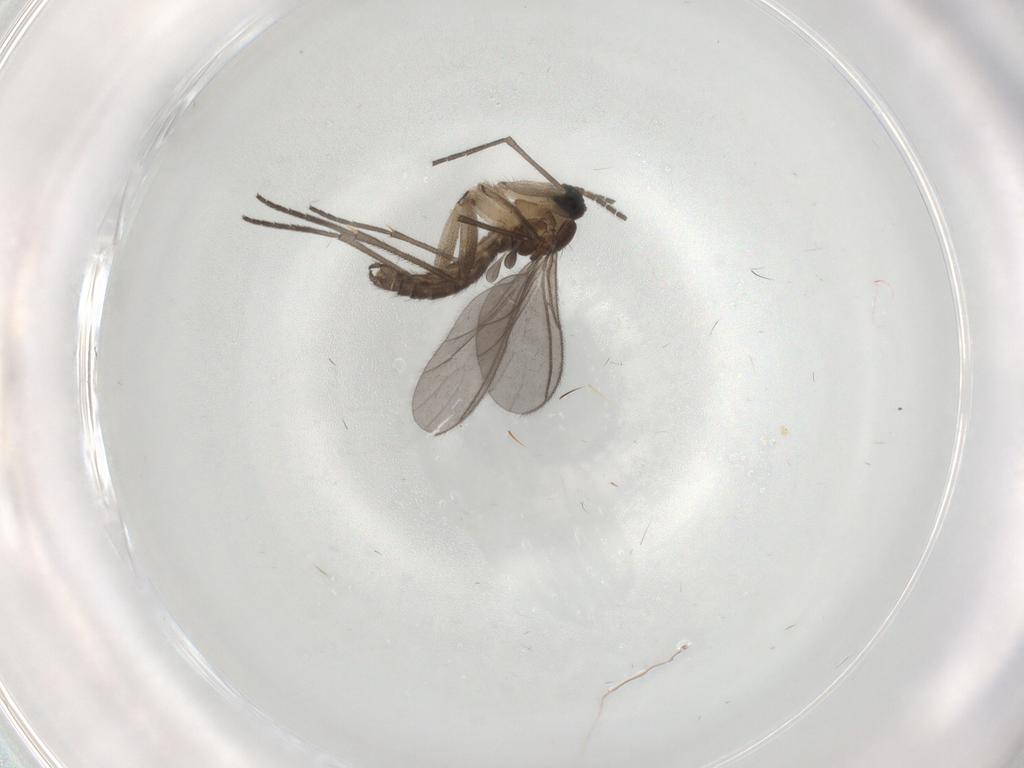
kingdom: Animalia
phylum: Arthropoda
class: Insecta
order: Diptera
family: Sciaridae
